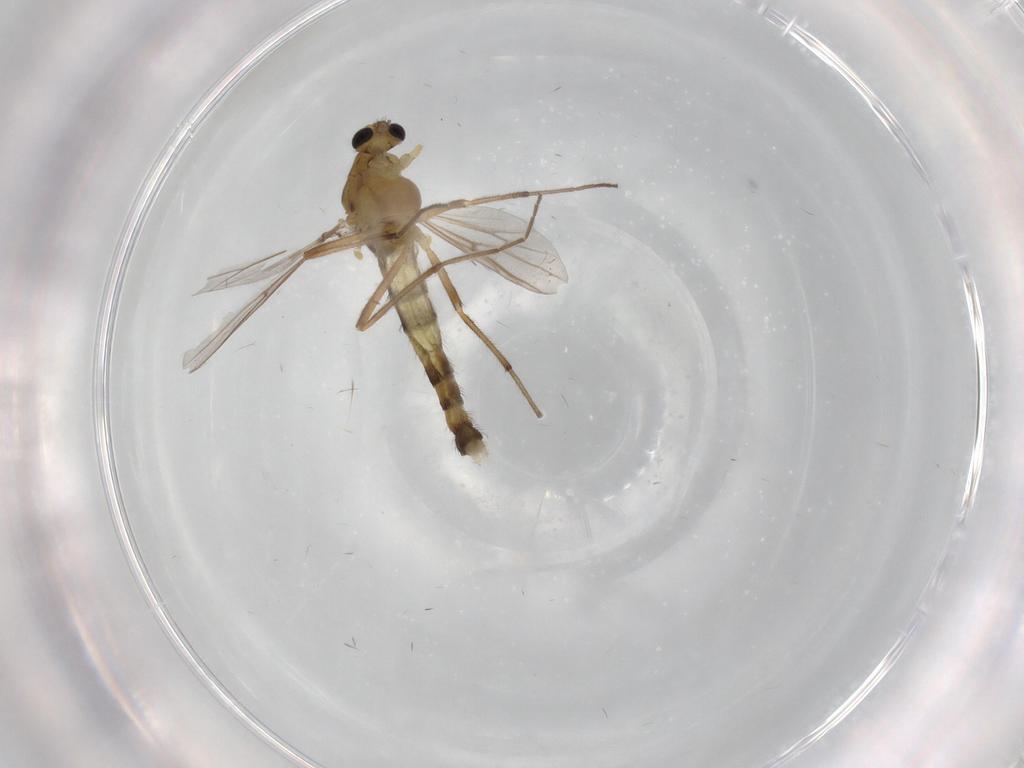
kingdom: Animalia
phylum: Arthropoda
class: Insecta
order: Diptera
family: Chironomidae
